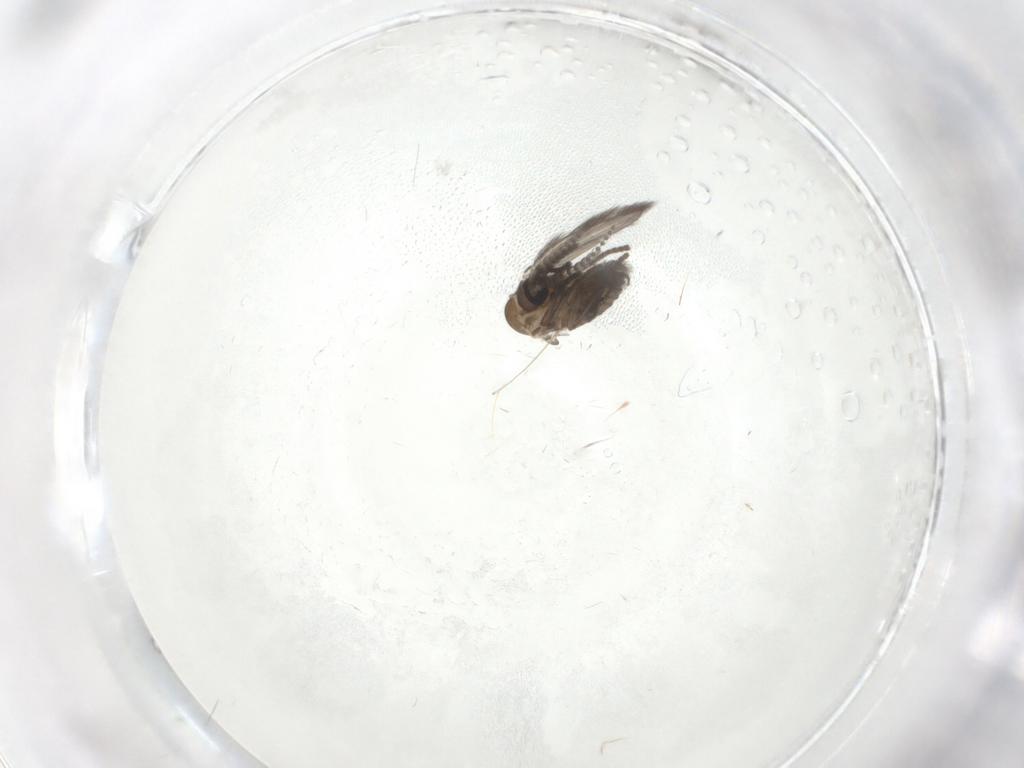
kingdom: Animalia
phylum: Arthropoda
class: Insecta
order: Diptera
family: Psychodidae
